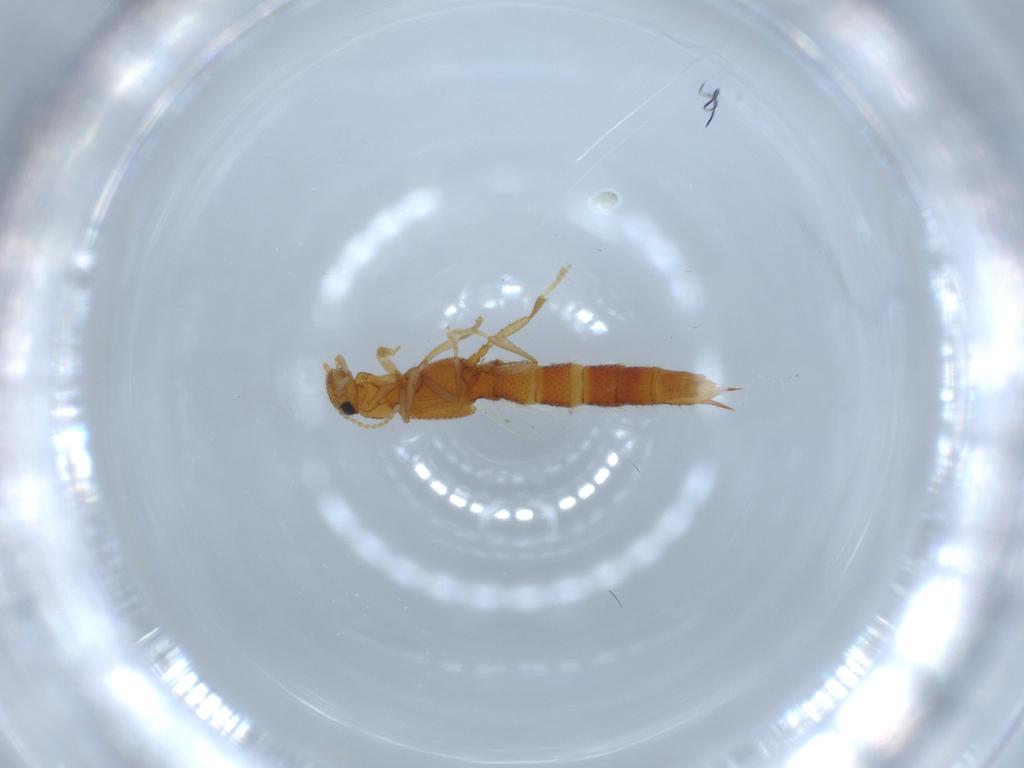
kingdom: Animalia
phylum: Arthropoda
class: Insecta
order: Coleoptera
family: Staphylinidae
